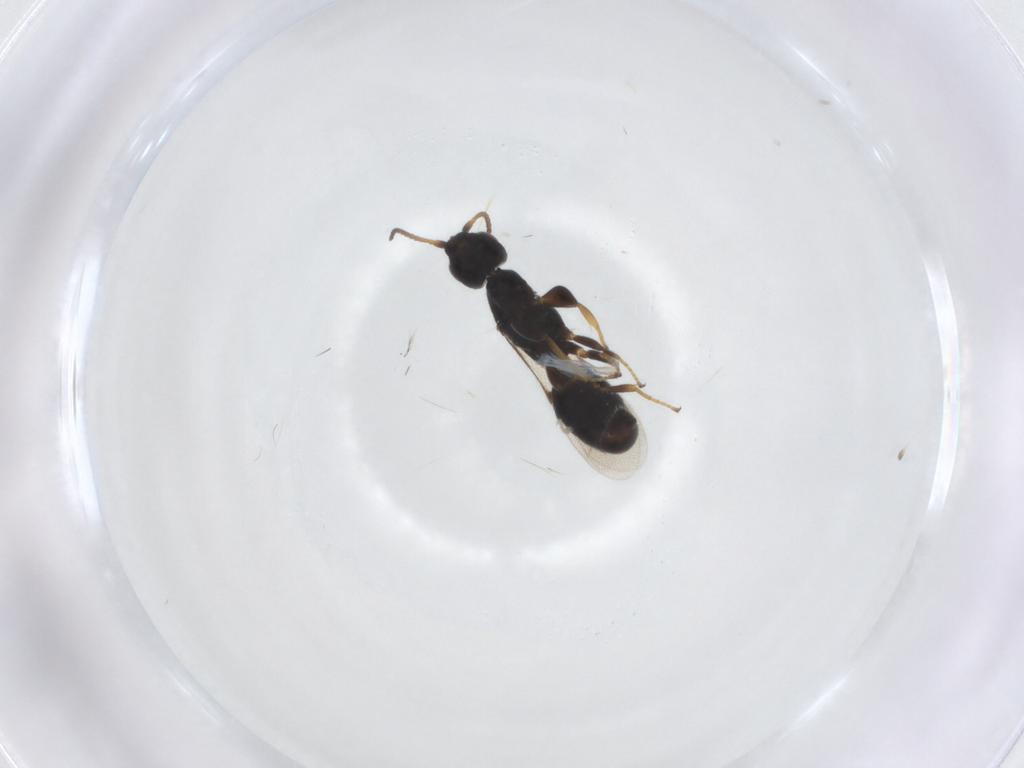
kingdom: Animalia
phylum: Arthropoda
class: Insecta
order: Hymenoptera
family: Bethylidae
